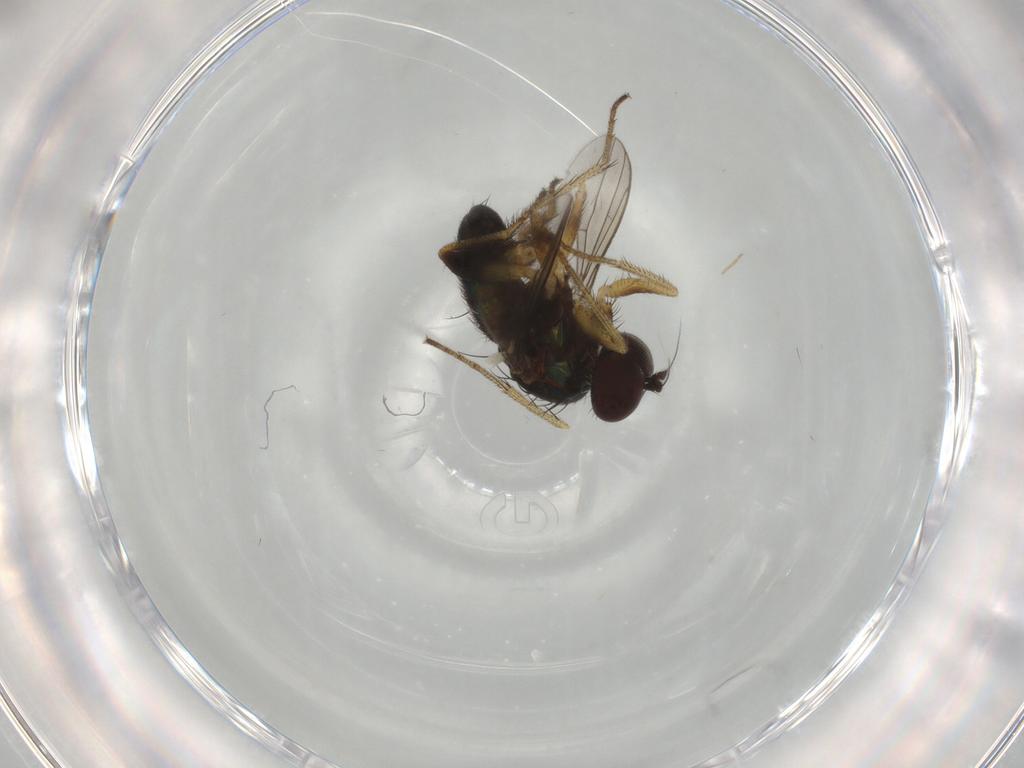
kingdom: Animalia
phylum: Arthropoda
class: Insecta
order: Diptera
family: Dolichopodidae
